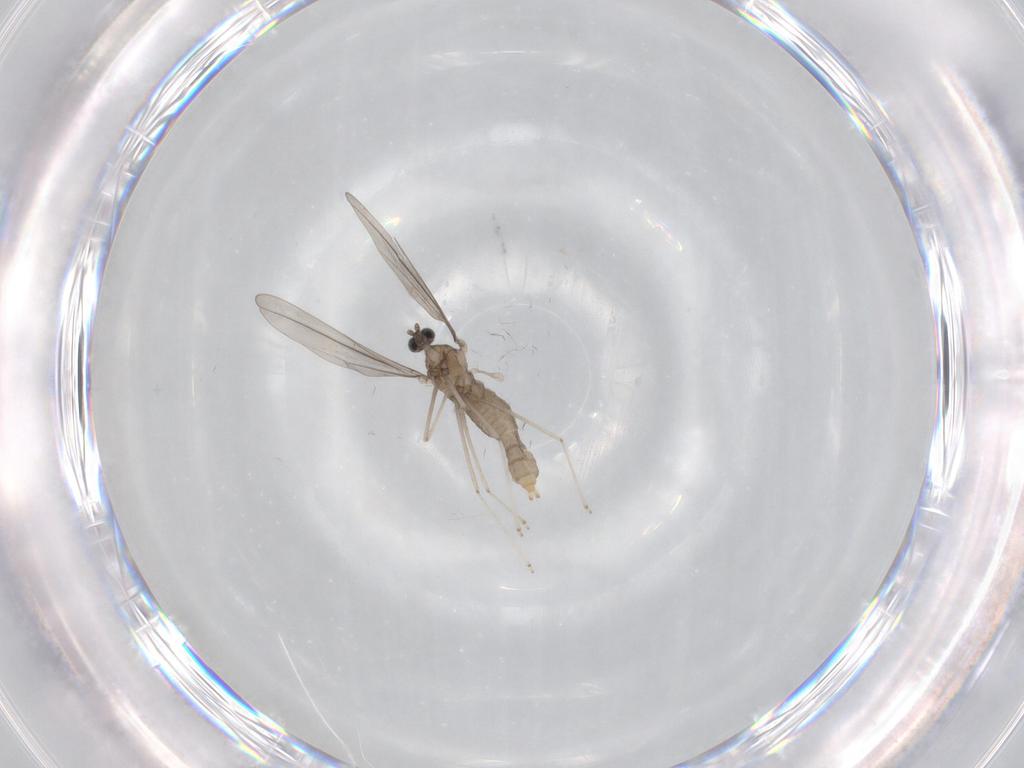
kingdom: Animalia
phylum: Arthropoda
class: Insecta
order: Diptera
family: Cecidomyiidae
